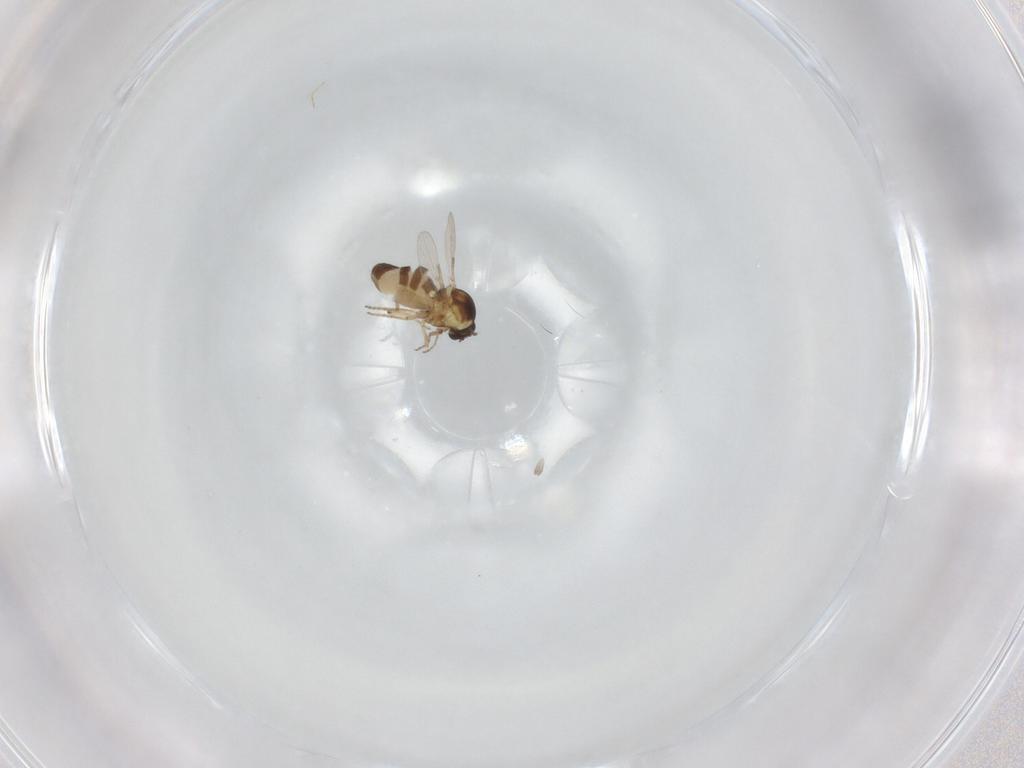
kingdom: Animalia
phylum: Arthropoda
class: Insecta
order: Diptera
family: Ceratopogonidae
